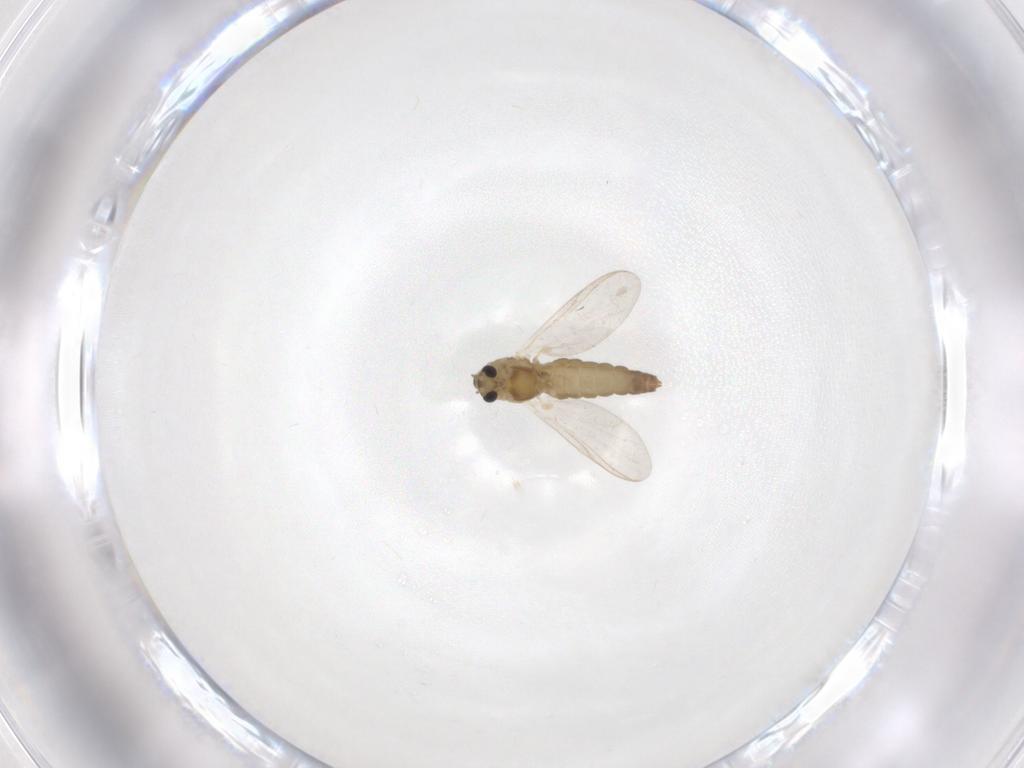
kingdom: Animalia
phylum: Arthropoda
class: Insecta
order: Diptera
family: Chironomidae
